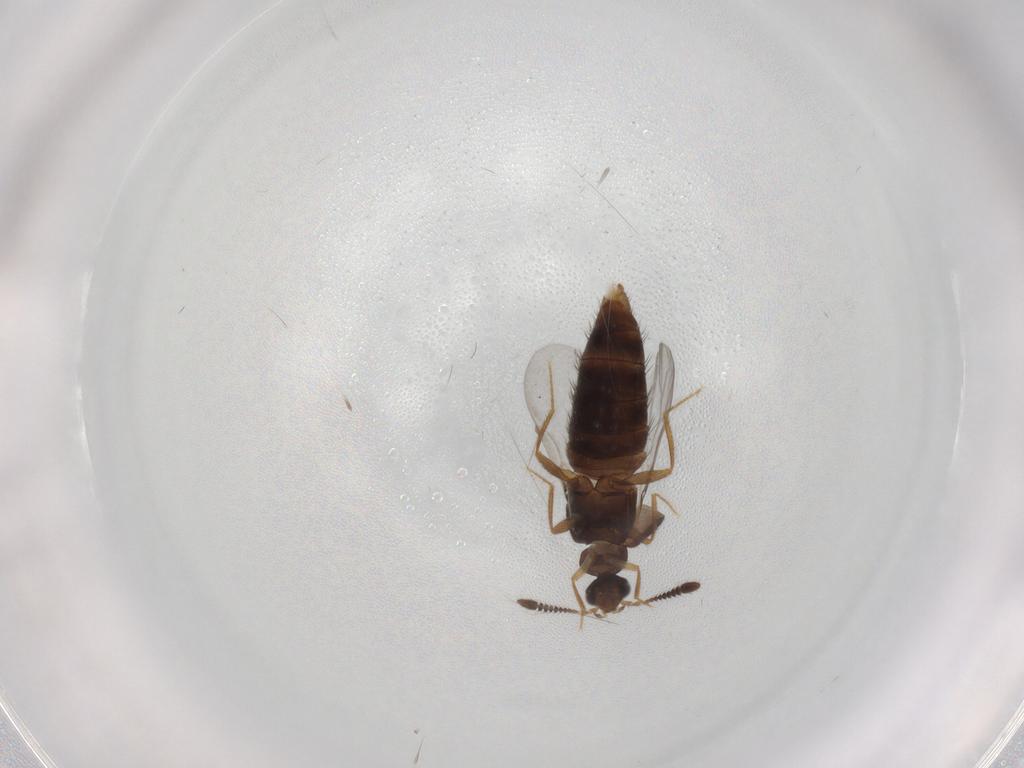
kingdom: Animalia
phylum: Arthropoda
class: Insecta
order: Coleoptera
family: Staphylinidae
